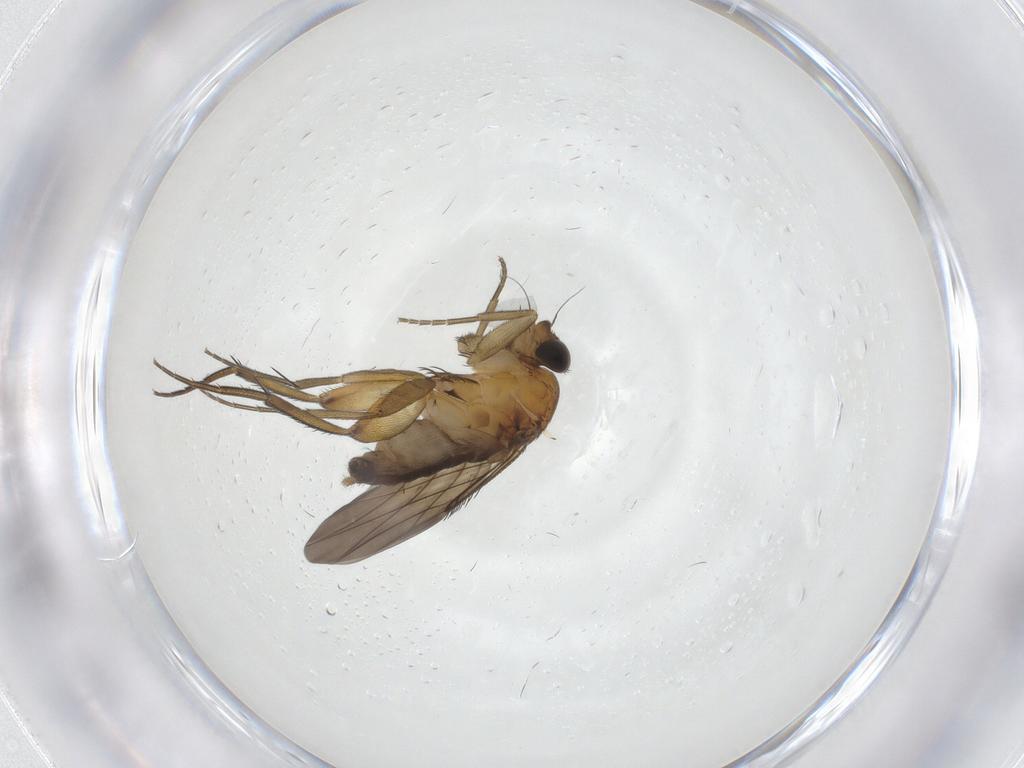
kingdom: Animalia
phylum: Arthropoda
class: Insecta
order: Diptera
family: Phoridae
